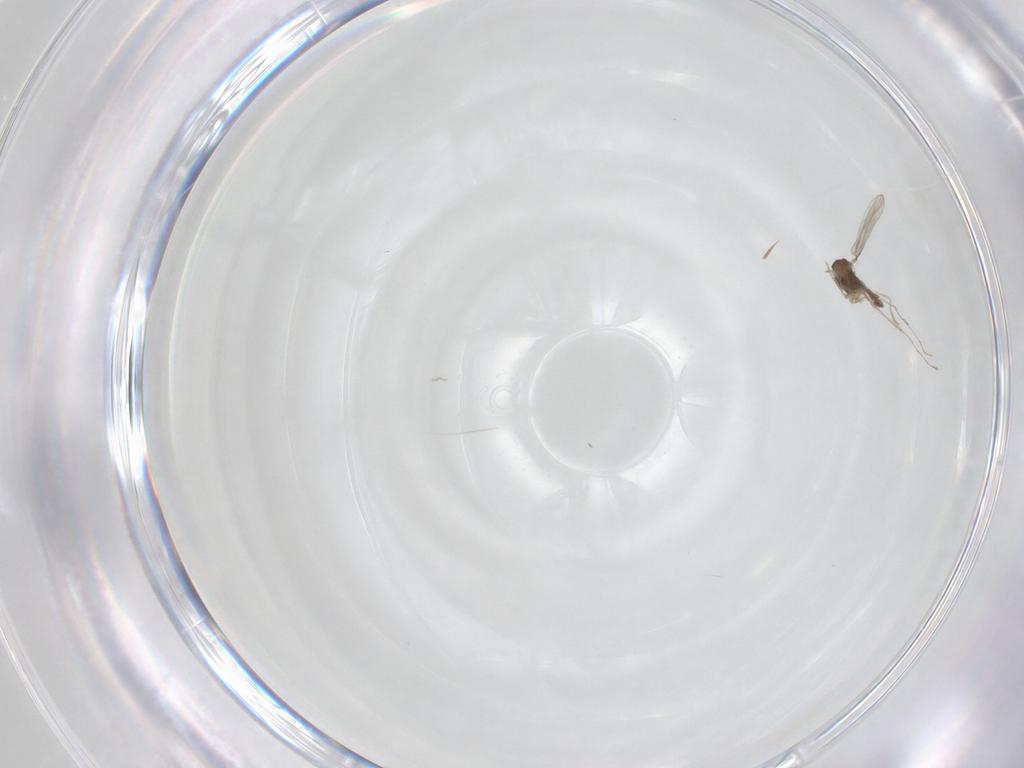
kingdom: Animalia
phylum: Arthropoda
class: Insecta
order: Diptera
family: Cecidomyiidae
